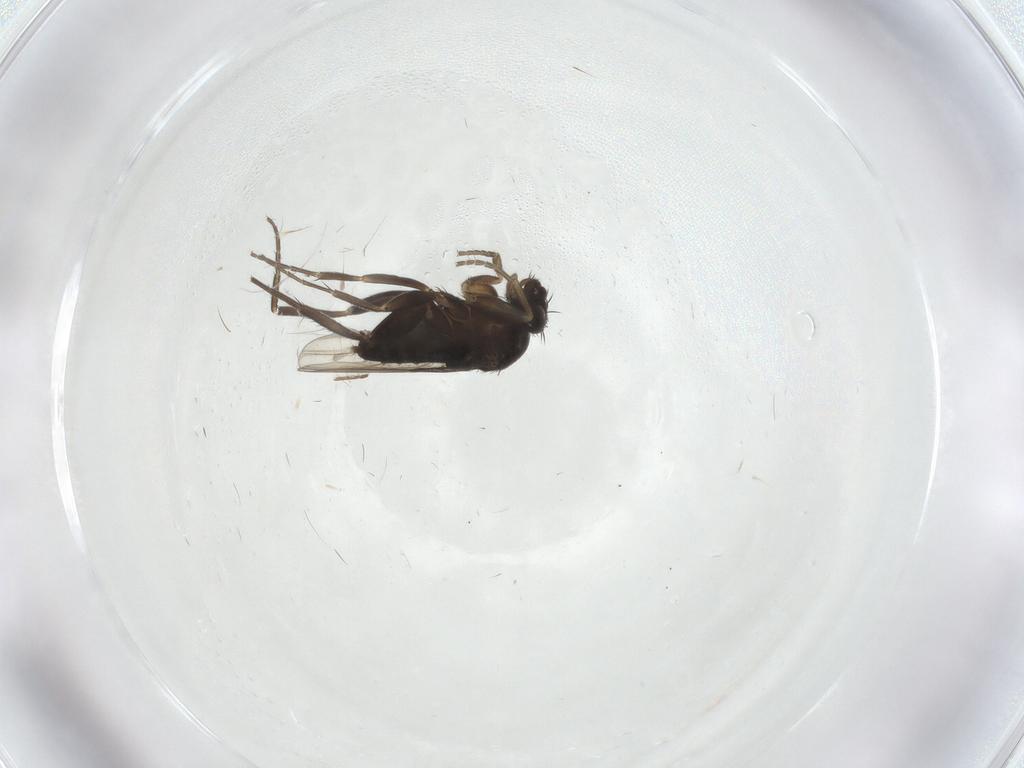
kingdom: Animalia
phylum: Arthropoda
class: Insecta
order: Diptera
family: Phoridae
